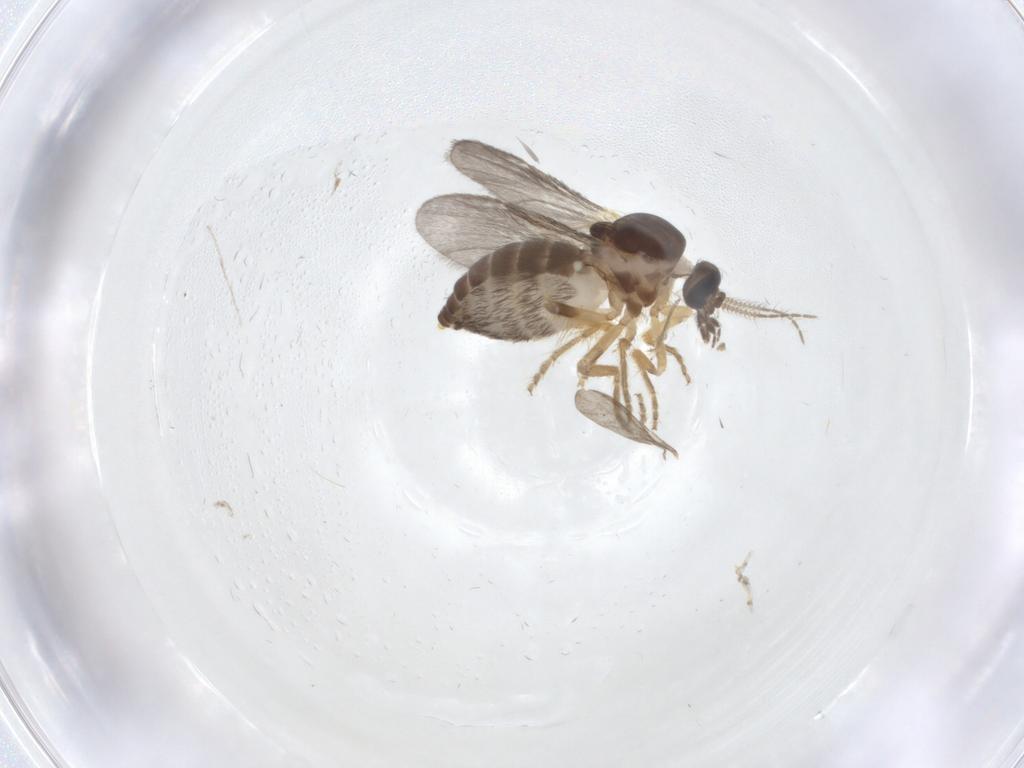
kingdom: Animalia
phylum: Arthropoda
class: Insecta
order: Diptera
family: Ceratopogonidae
